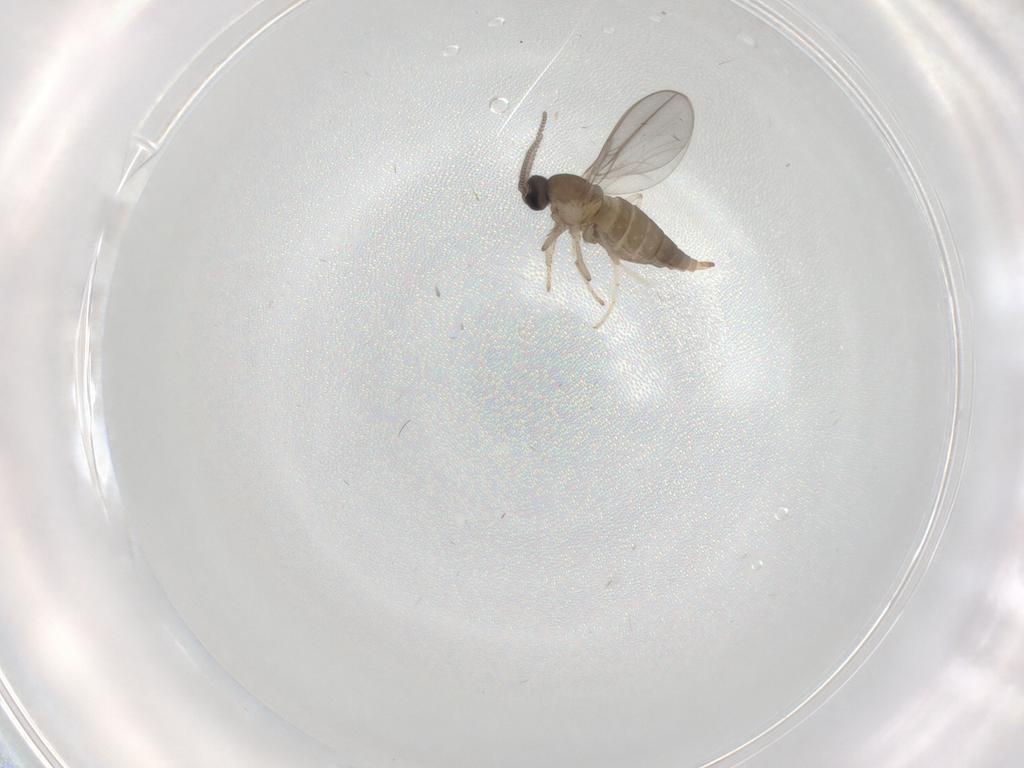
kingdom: Animalia
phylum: Arthropoda
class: Insecta
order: Diptera
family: Cecidomyiidae
